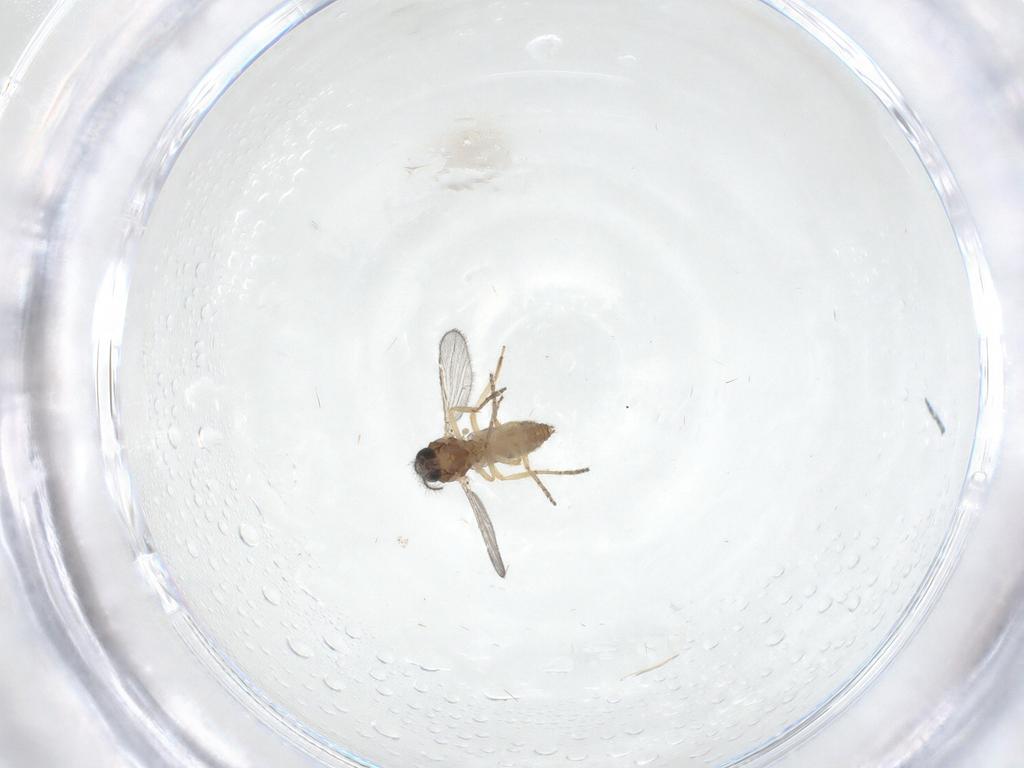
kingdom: Animalia
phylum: Arthropoda
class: Insecta
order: Diptera
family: Ceratopogonidae
